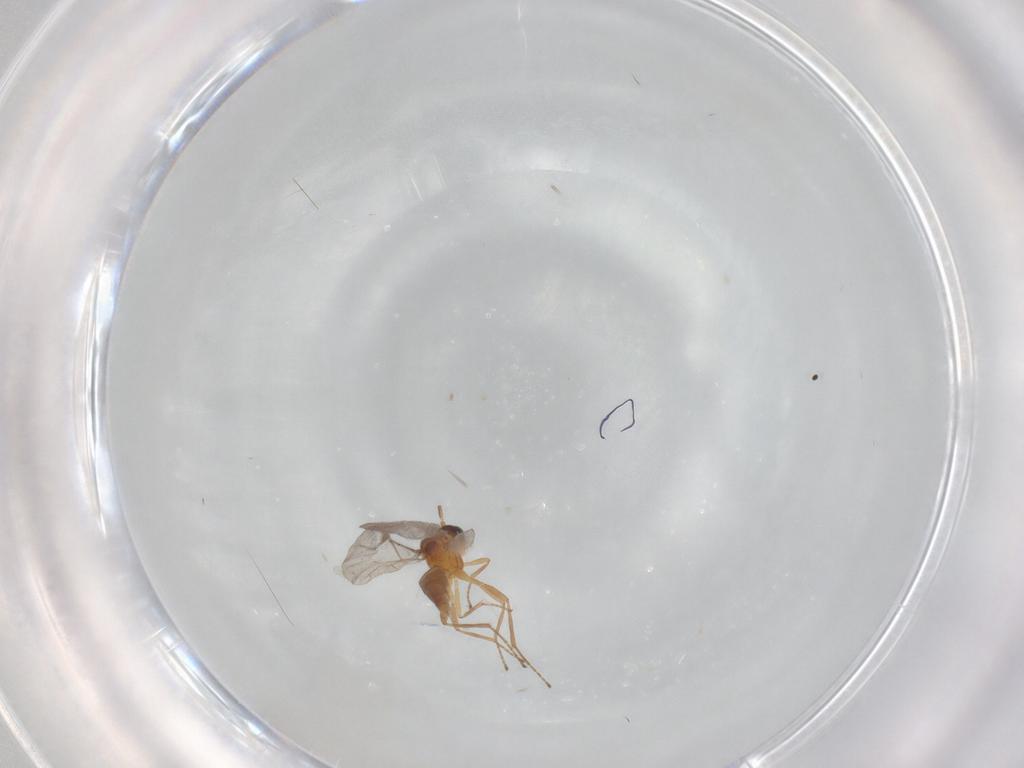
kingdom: Animalia
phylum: Arthropoda
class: Insecta
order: Hymenoptera
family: Braconidae
